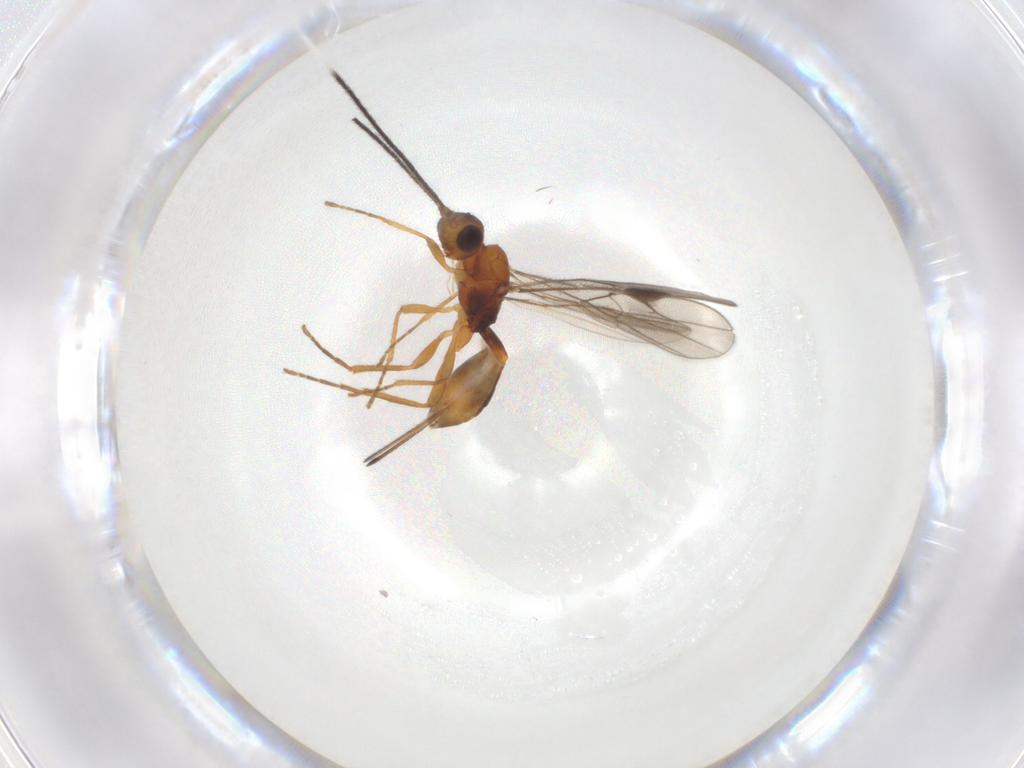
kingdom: Animalia
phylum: Arthropoda
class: Insecta
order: Hymenoptera
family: Braconidae
